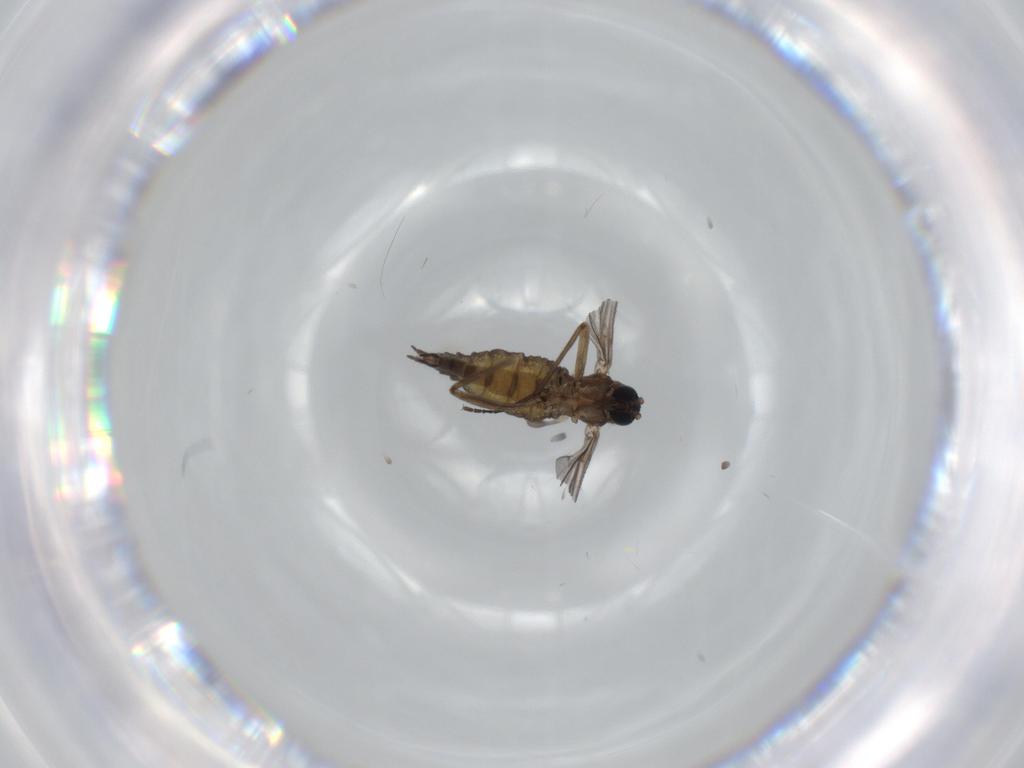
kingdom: Animalia
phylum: Arthropoda
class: Insecta
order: Diptera
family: Sciaridae
